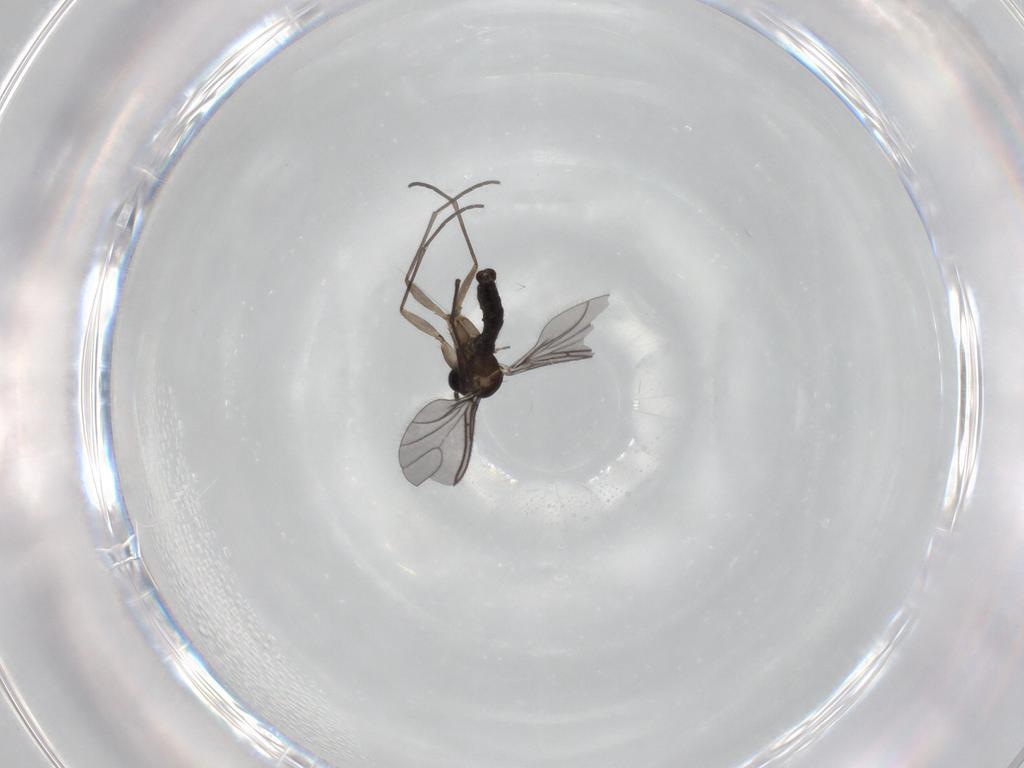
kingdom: Animalia
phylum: Arthropoda
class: Insecta
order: Diptera
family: Sciaridae
